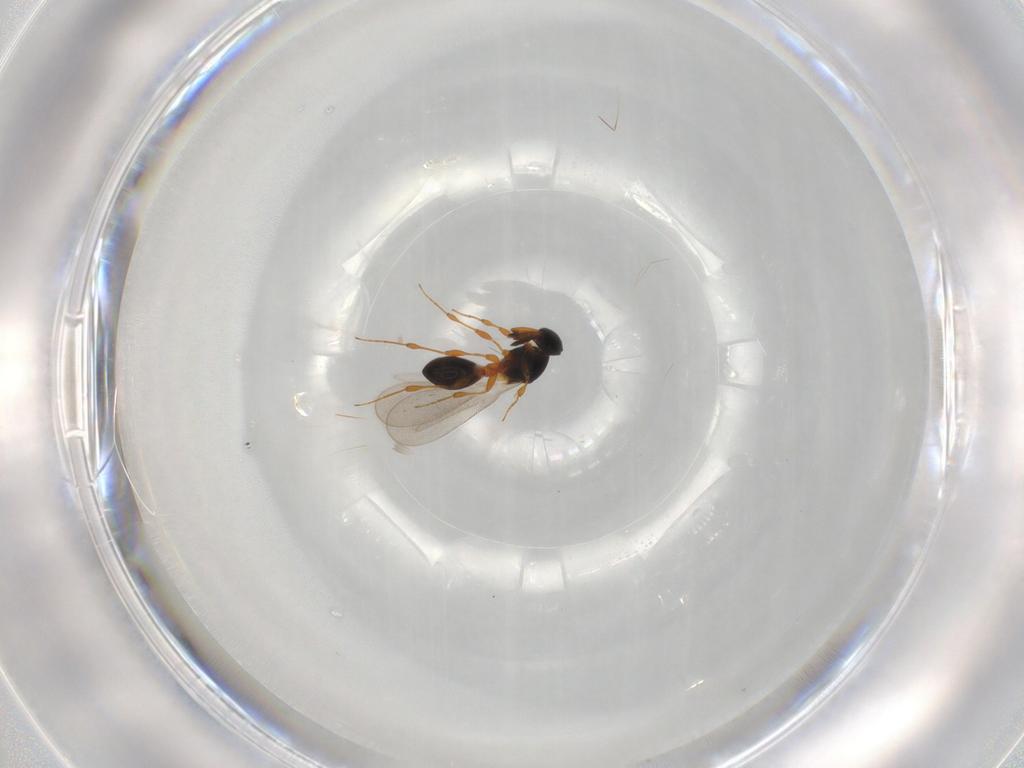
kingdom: Animalia
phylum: Arthropoda
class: Insecta
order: Hymenoptera
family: Platygastridae
